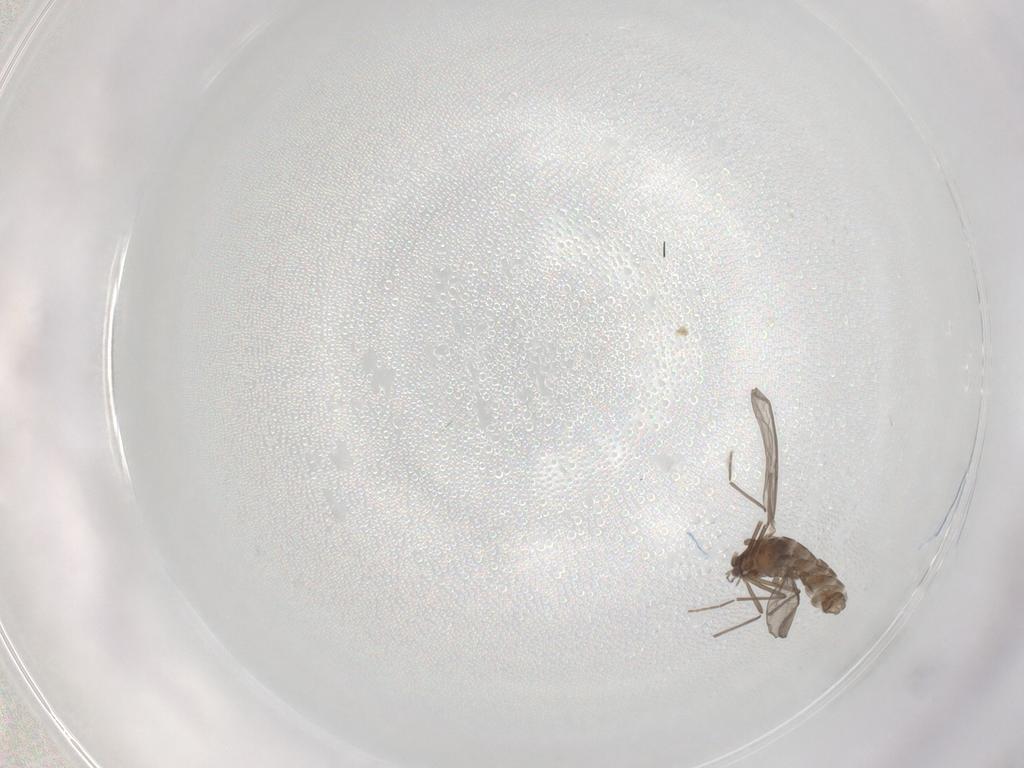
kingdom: Animalia
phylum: Arthropoda
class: Insecta
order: Diptera
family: Chironomidae
